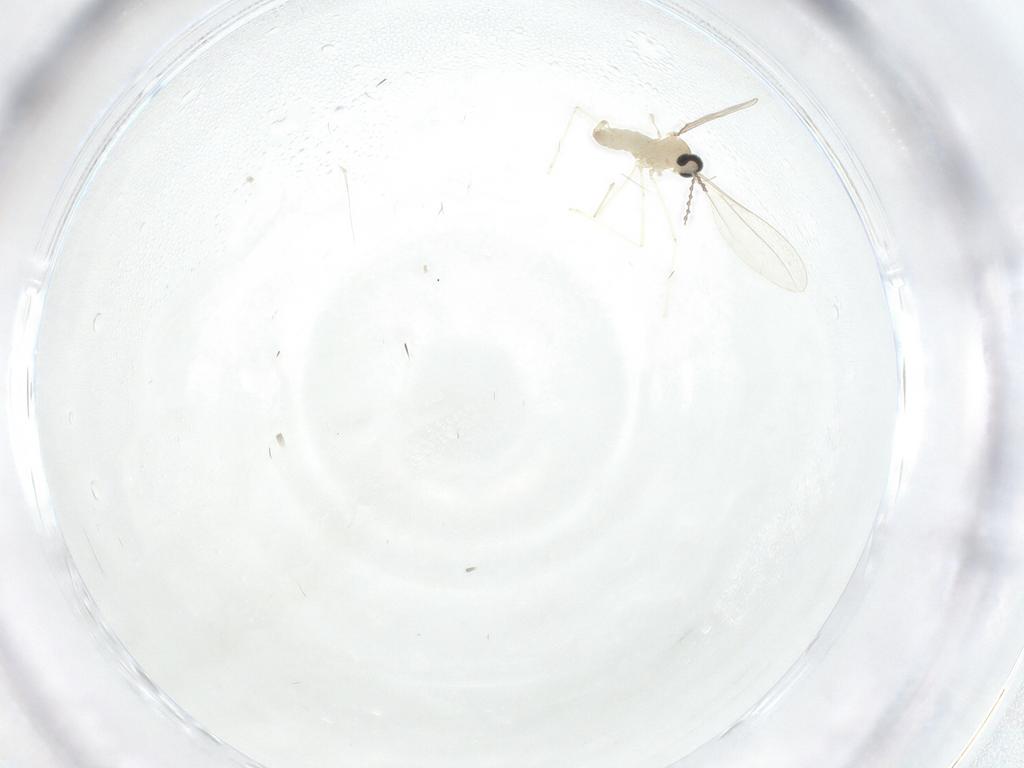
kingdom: Animalia
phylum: Arthropoda
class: Insecta
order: Diptera
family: Cecidomyiidae
